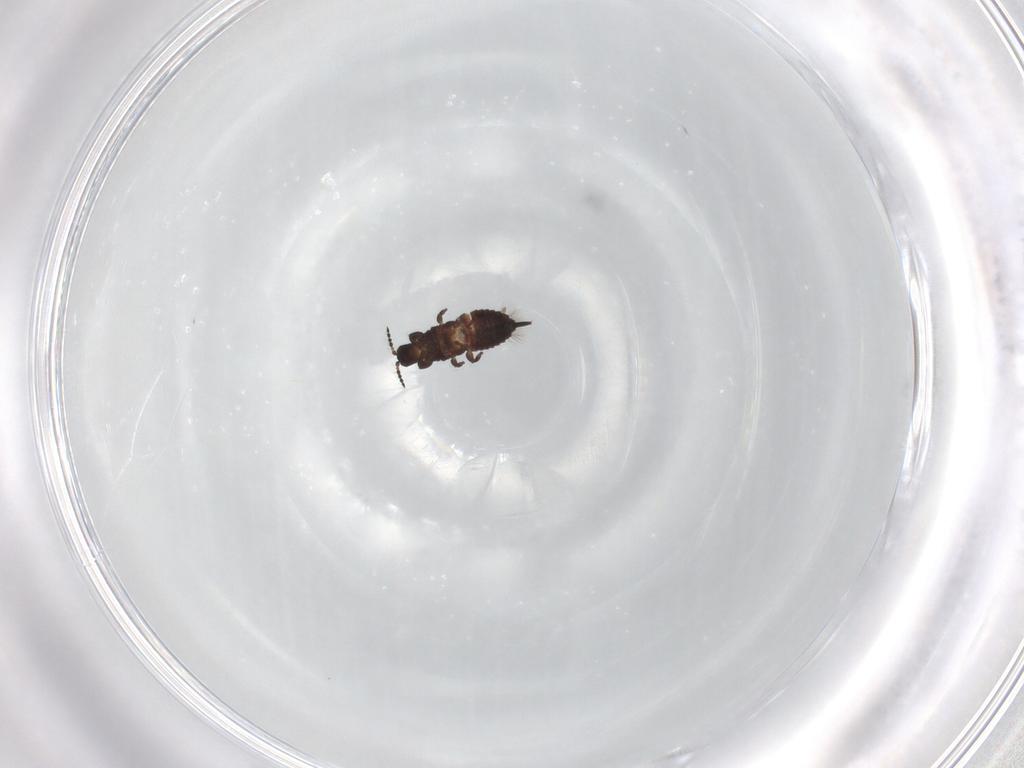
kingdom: Animalia
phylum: Arthropoda
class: Insecta
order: Thysanoptera
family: Phlaeothripidae
